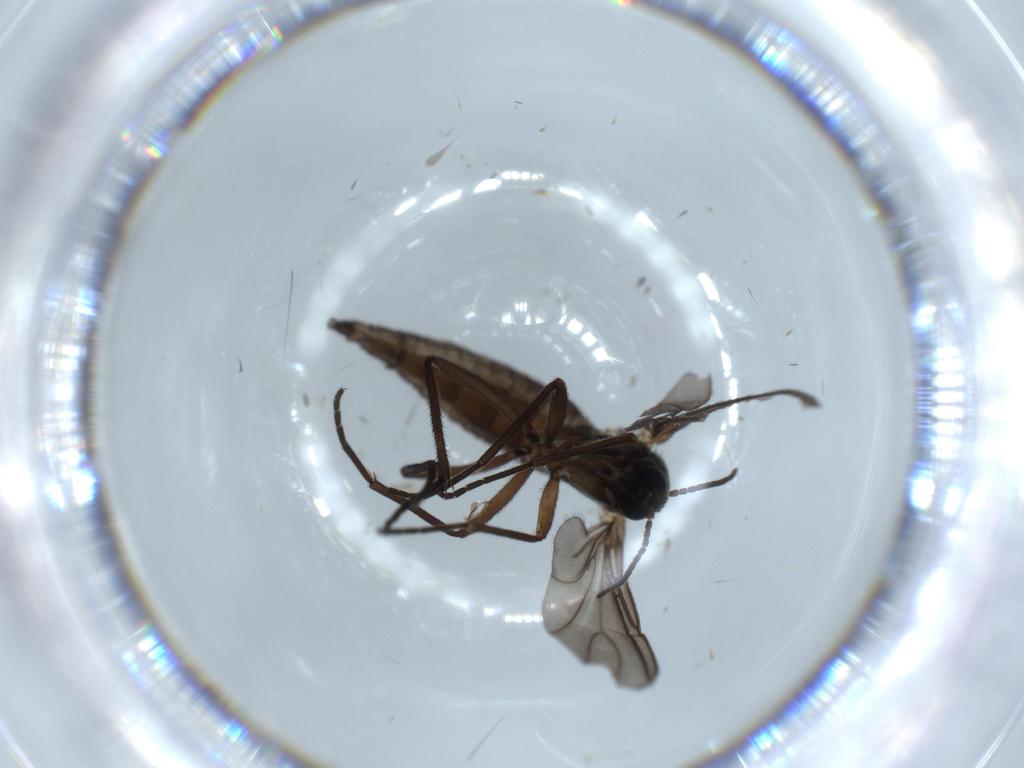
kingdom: Animalia
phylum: Arthropoda
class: Insecta
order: Diptera
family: Sciaridae
